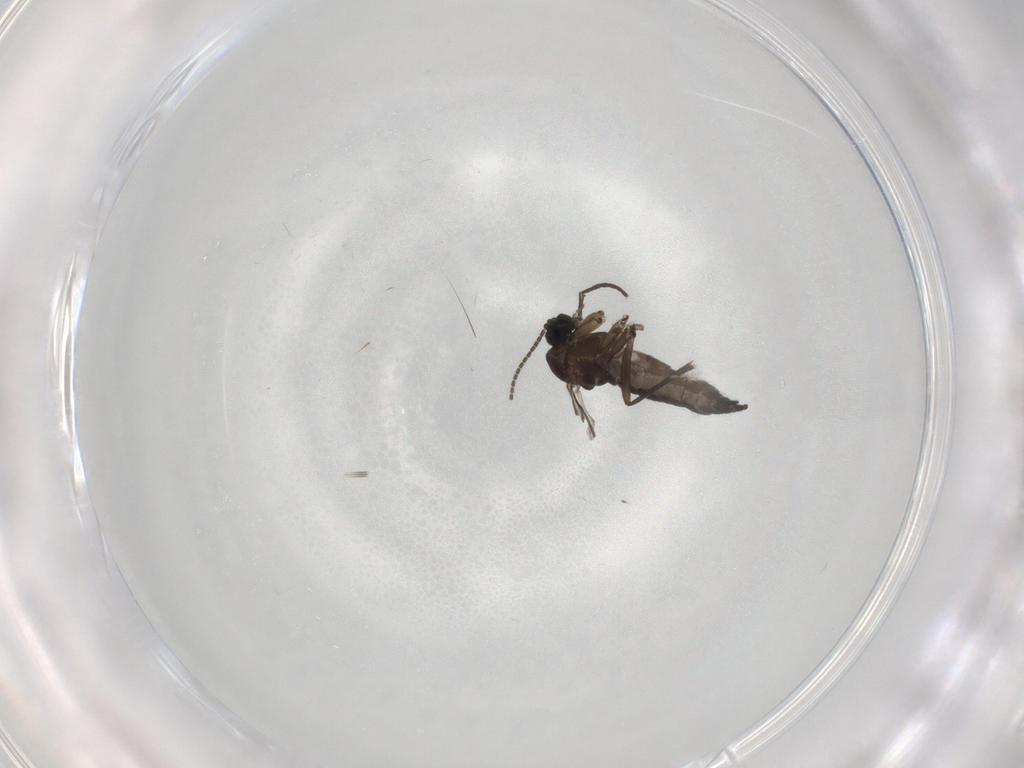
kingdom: Animalia
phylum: Arthropoda
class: Insecta
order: Diptera
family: Sciaridae
